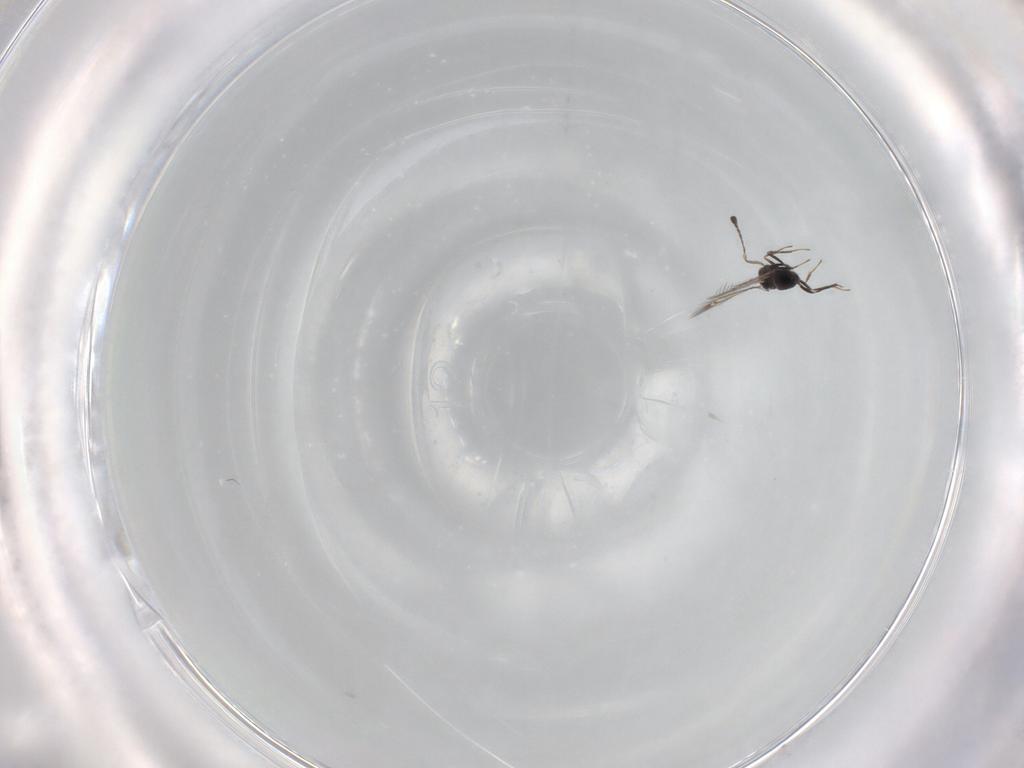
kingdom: Animalia
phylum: Arthropoda
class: Insecta
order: Hymenoptera
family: Mymaridae
